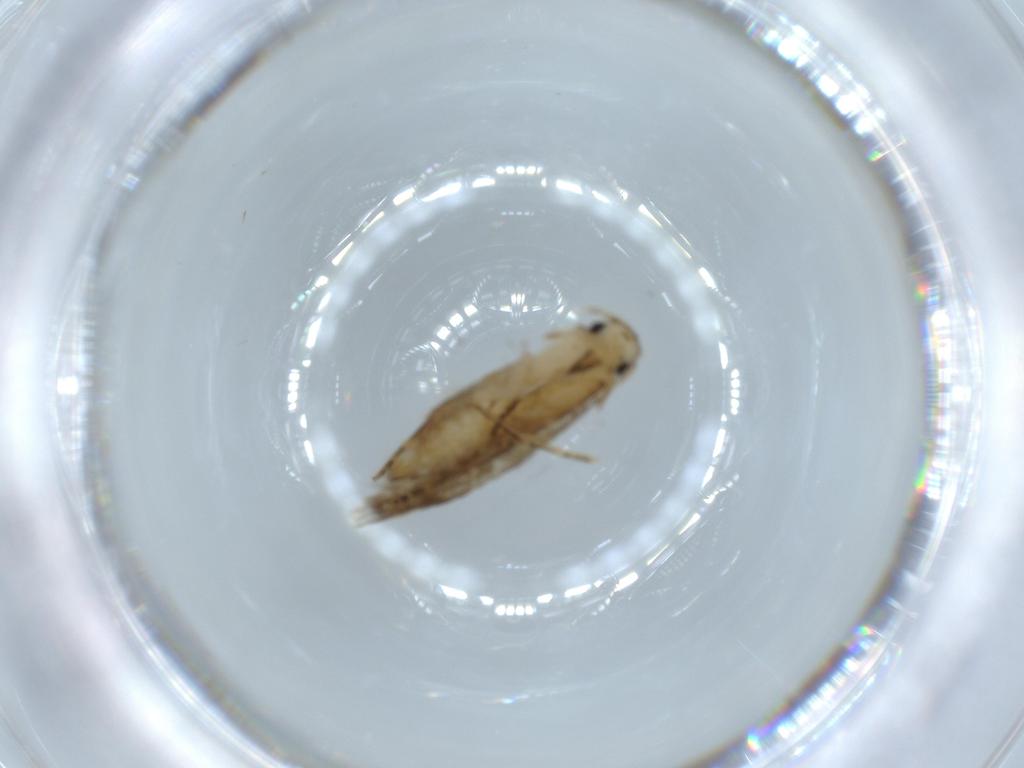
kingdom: Animalia
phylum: Arthropoda
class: Insecta
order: Lepidoptera
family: Tineidae
